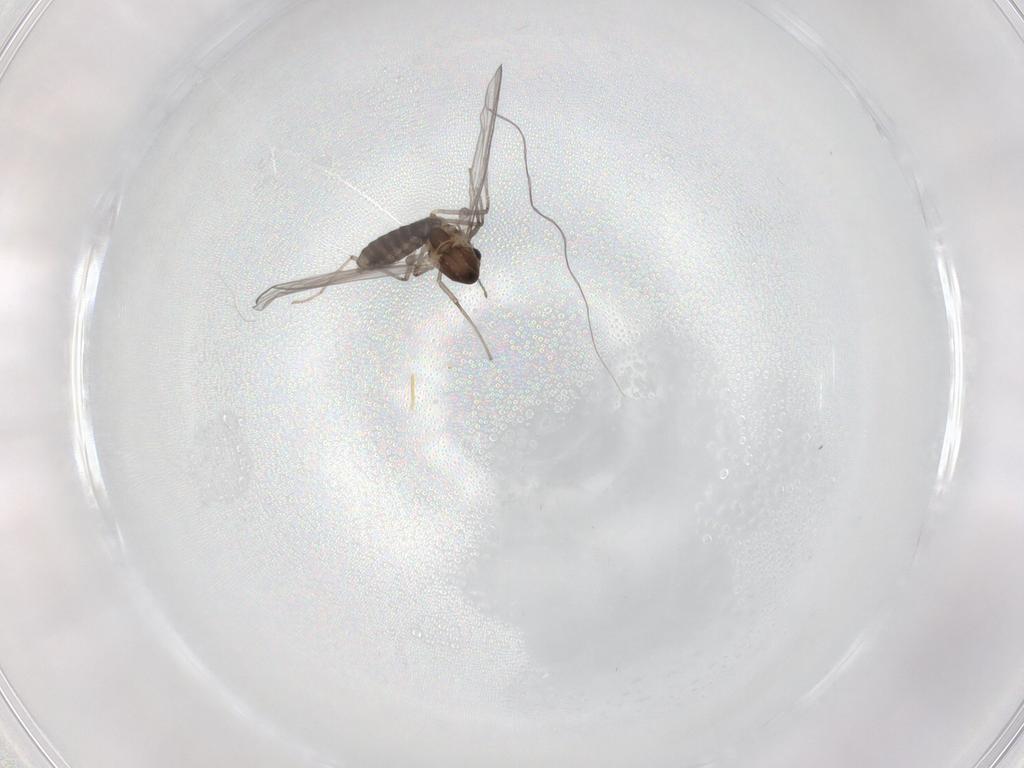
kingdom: Animalia
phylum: Arthropoda
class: Insecta
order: Diptera
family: Chironomidae
